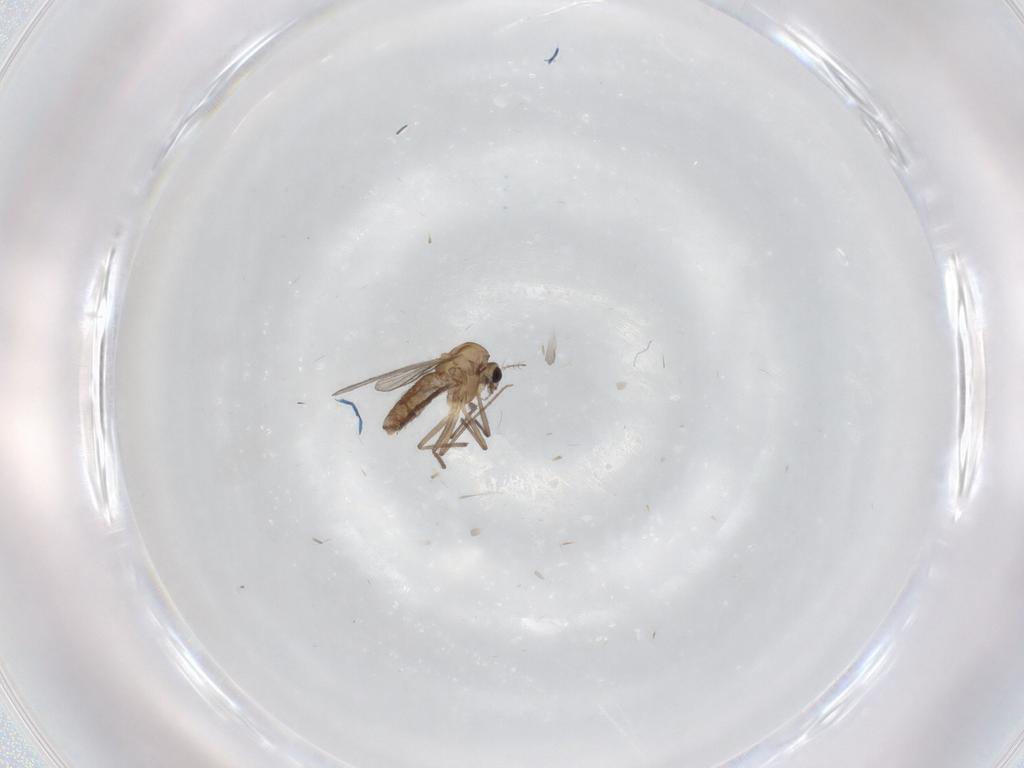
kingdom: Animalia
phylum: Arthropoda
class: Insecta
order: Diptera
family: Chironomidae
